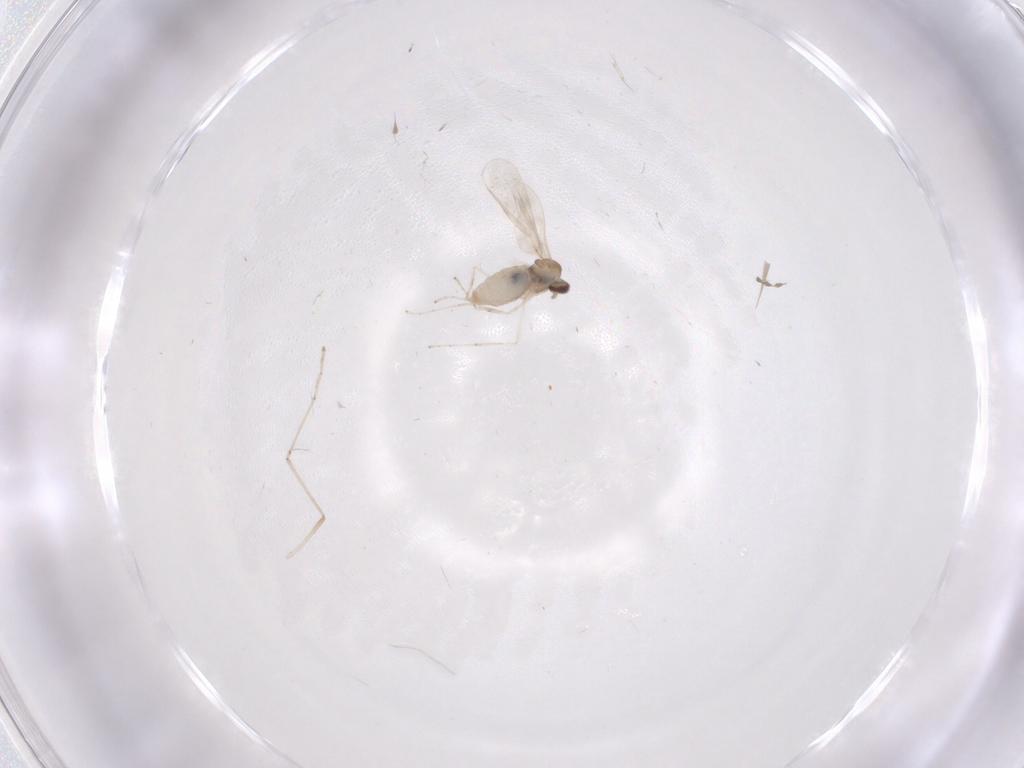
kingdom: Animalia
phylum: Arthropoda
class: Insecta
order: Diptera
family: Cecidomyiidae
